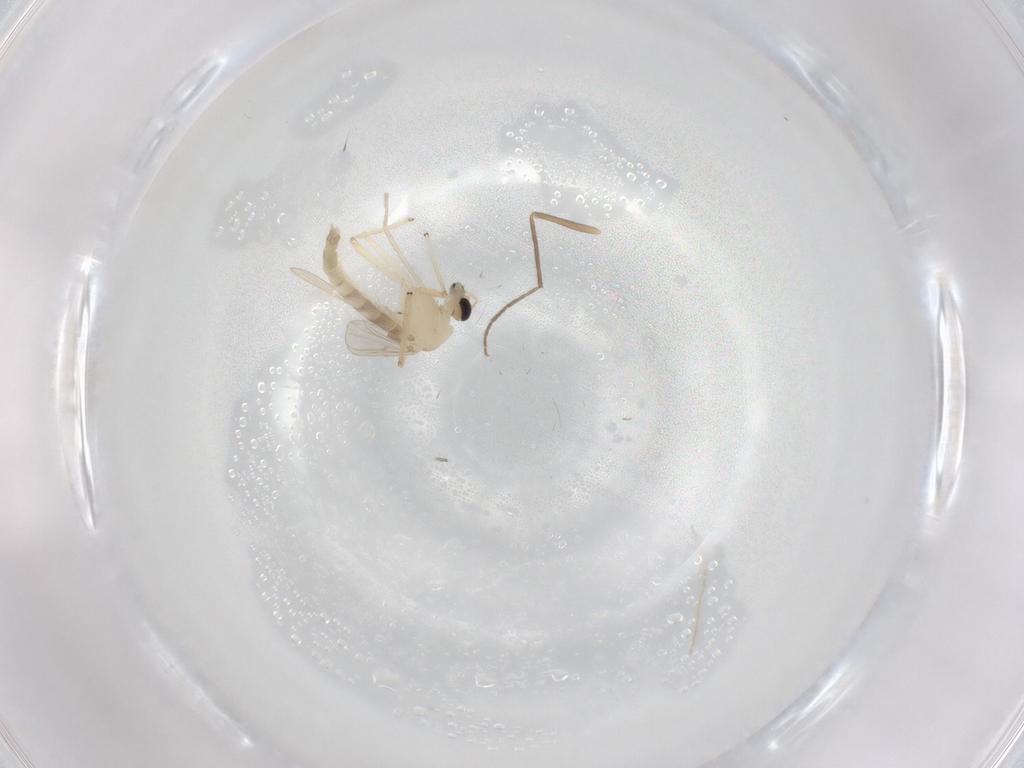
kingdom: Animalia
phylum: Arthropoda
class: Insecta
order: Diptera
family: Chironomidae
